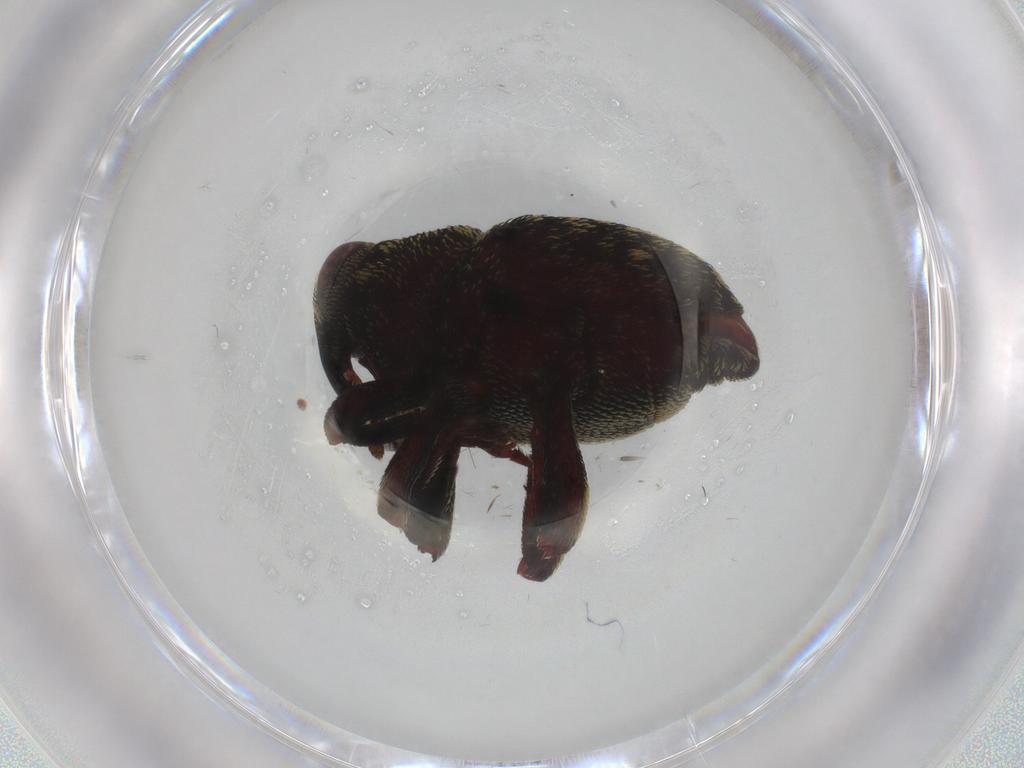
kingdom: Animalia
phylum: Arthropoda
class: Insecta
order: Coleoptera
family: Curculionidae
